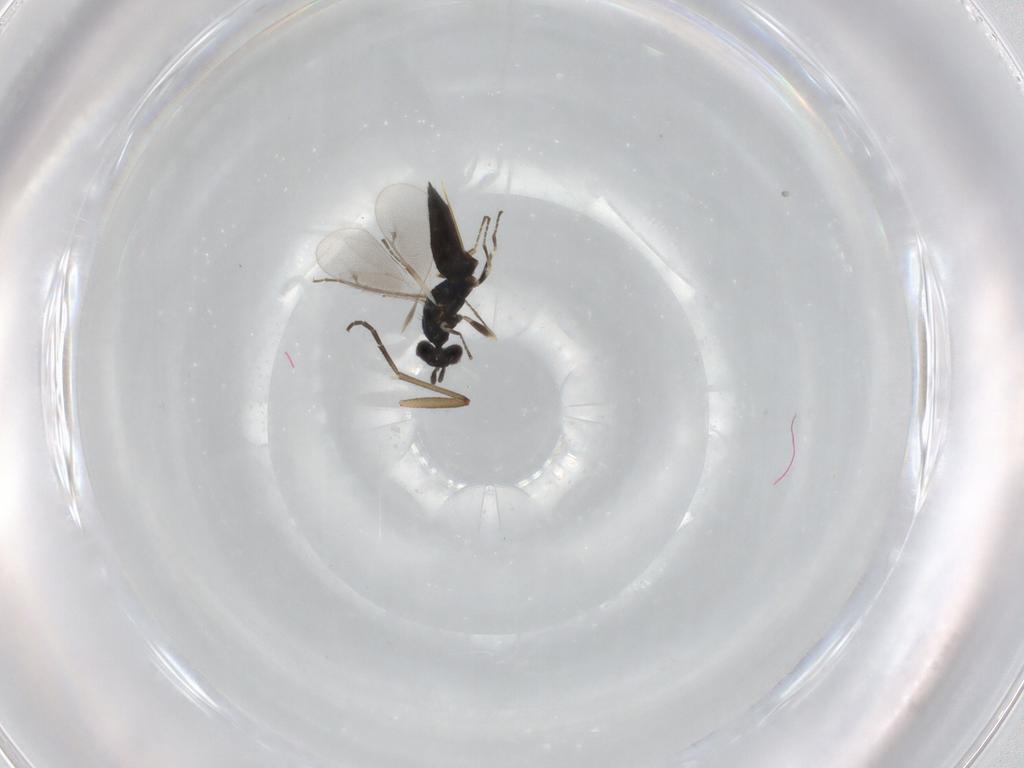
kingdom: Animalia
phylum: Arthropoda
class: Insecta
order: Hymenoptera
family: Eulophidae
